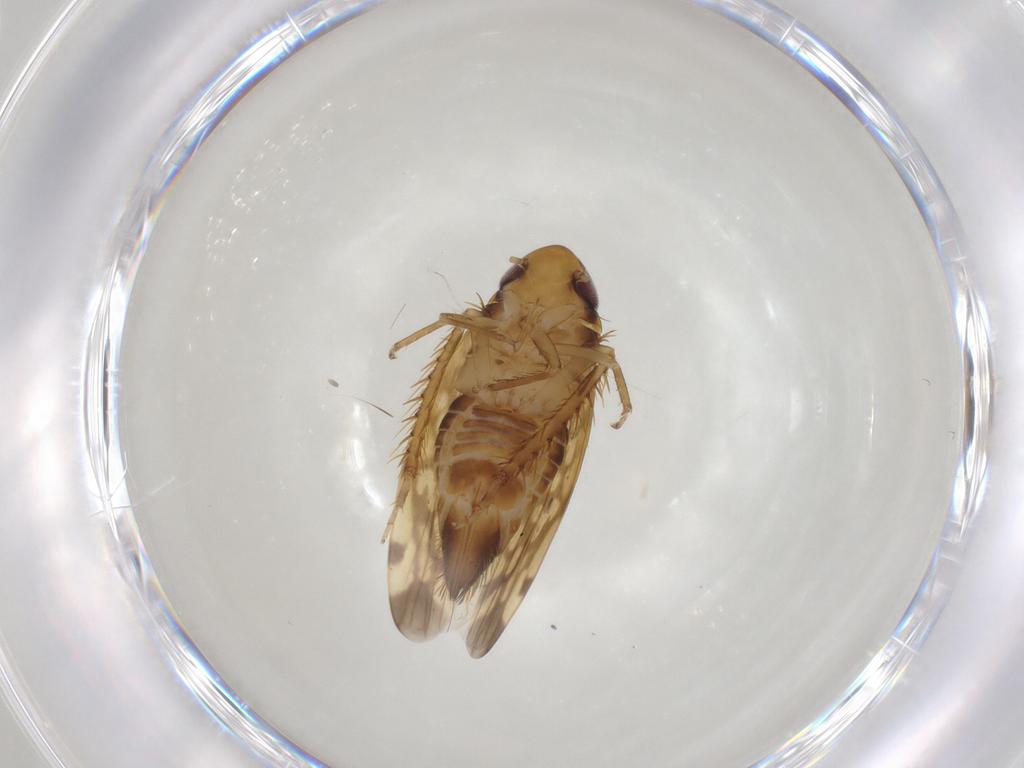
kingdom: Animalia
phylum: Arthropoda
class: Insecta
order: Hemiptera
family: Cicadellidae
